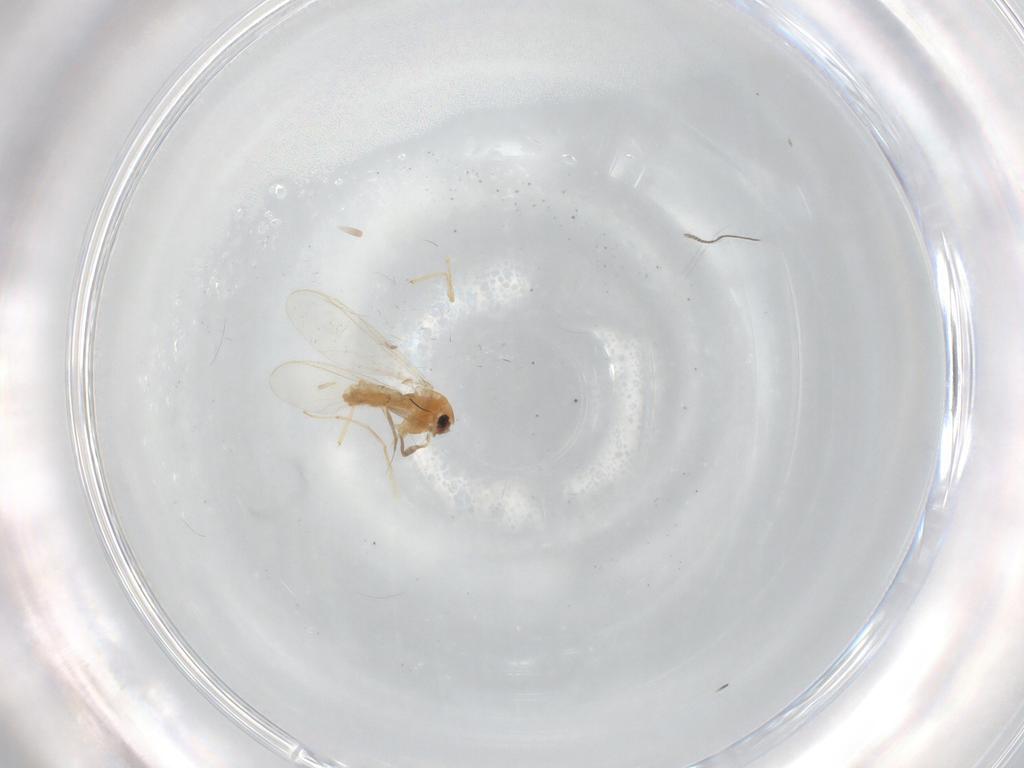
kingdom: Animalia
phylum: Arthropoda
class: Insecta
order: Diptera
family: Chironomidae
